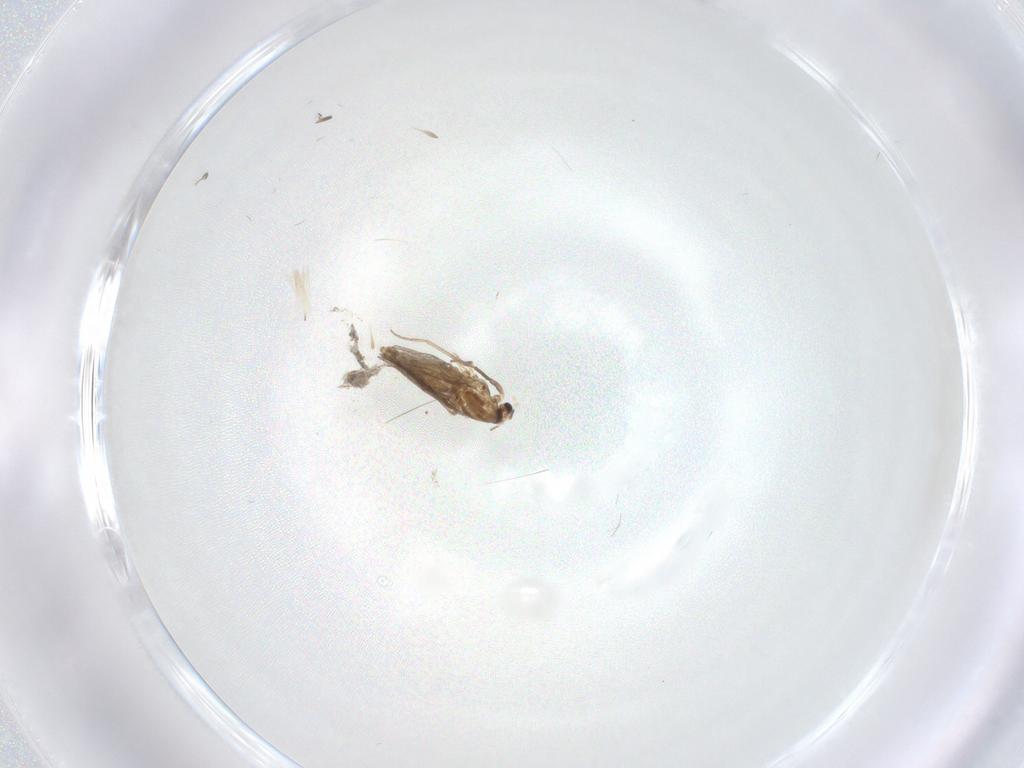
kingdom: Animalia
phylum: Arthropoda
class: Insecta
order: Diptera
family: Chironomidae
